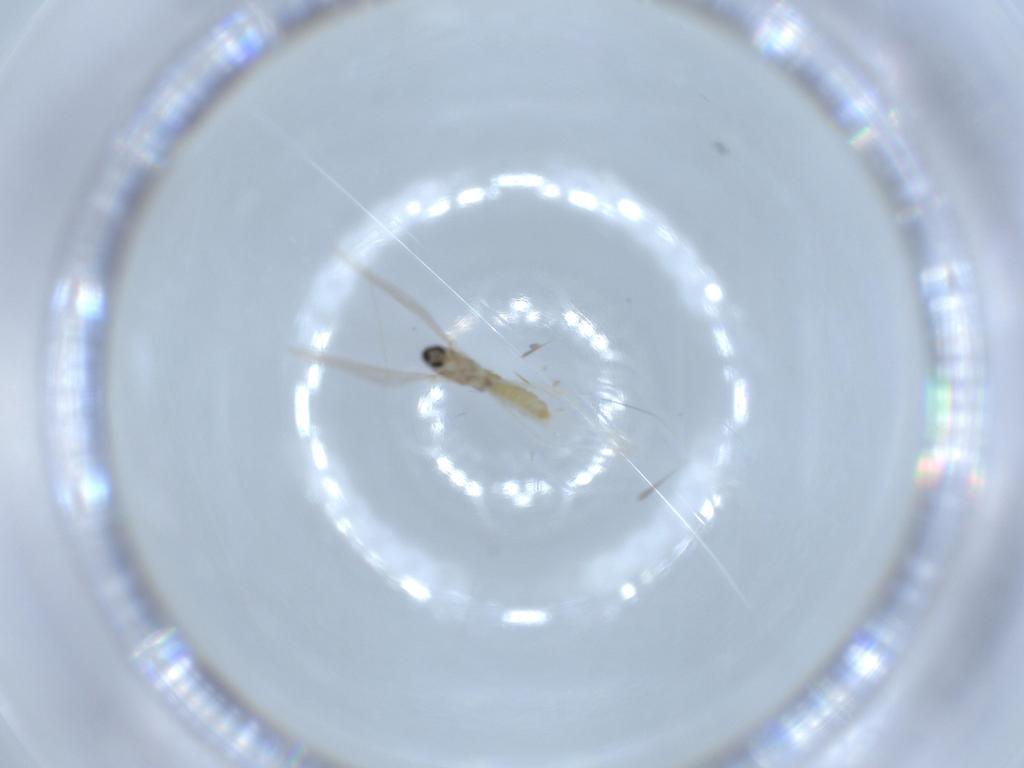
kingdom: Animalia
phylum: Arthropoda
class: Insecta
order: Diptera
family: Cecidomyiidae
